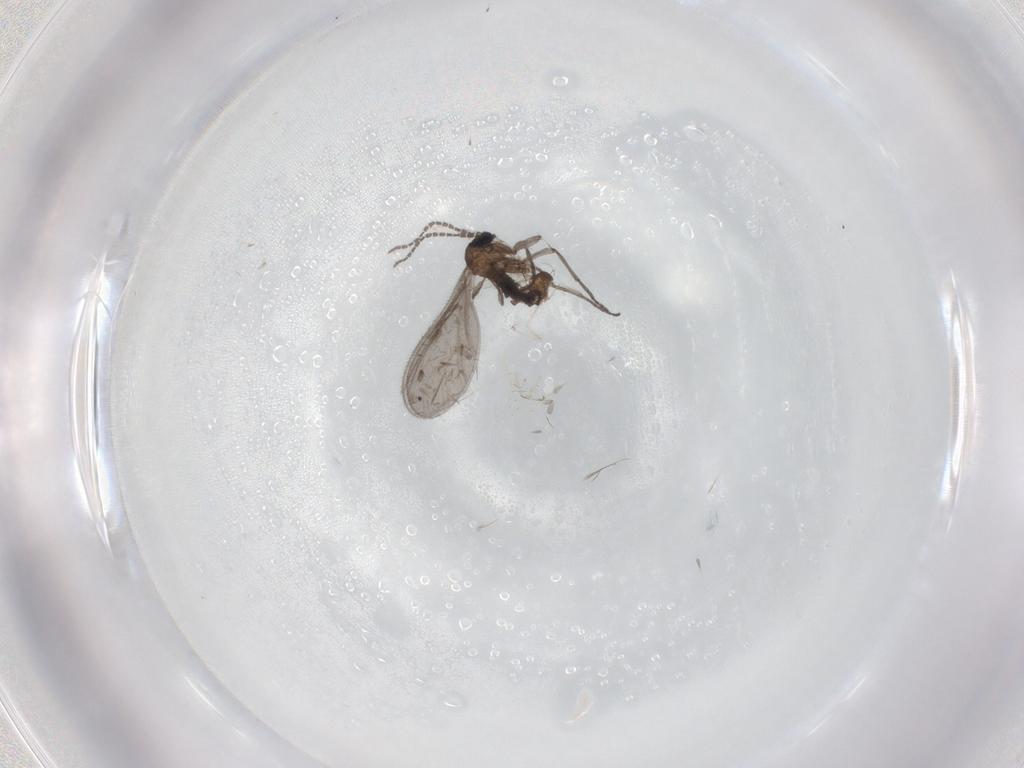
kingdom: Animalia
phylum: Arthropoda
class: Insecta
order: Diptera
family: Sciaridae
